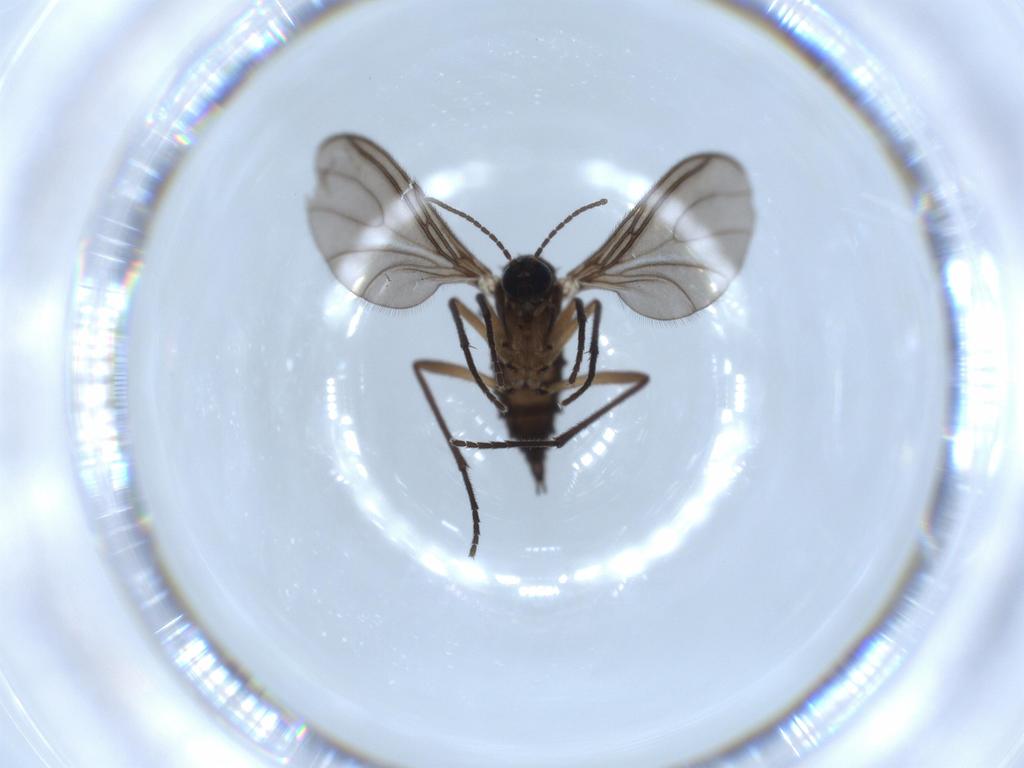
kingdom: Animalia
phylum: Arthropoda
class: Insecta
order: Diptera
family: Sciaridae
